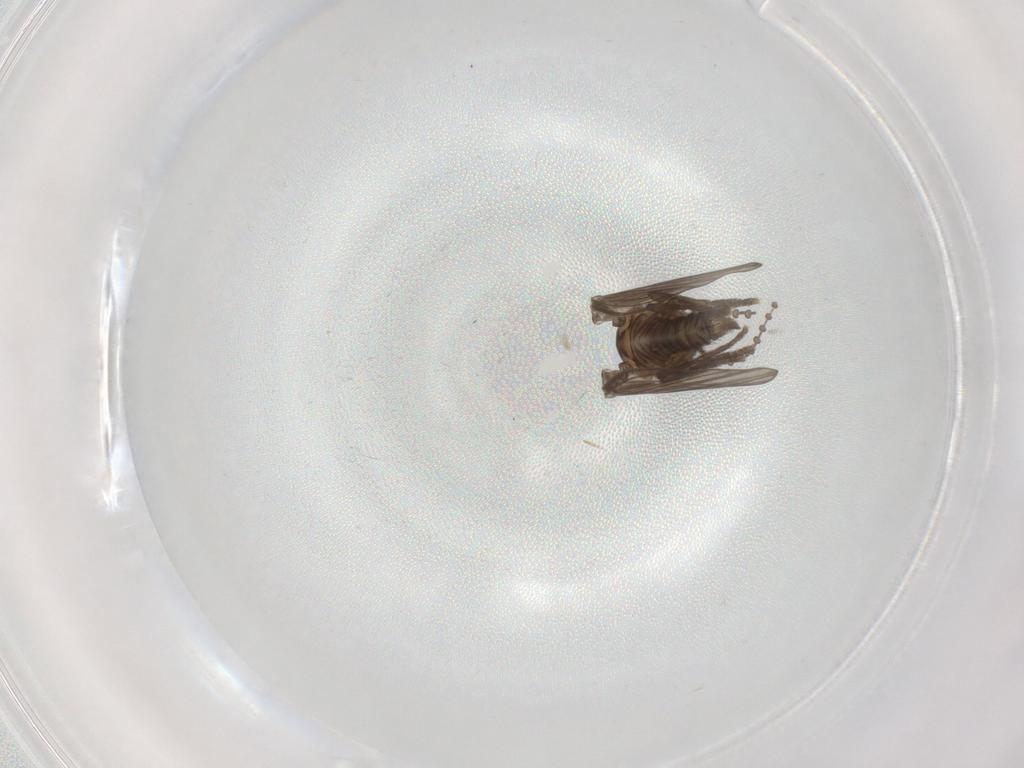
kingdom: Animalia
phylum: Arthropoda
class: Insecta
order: Diptera
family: Sciaridae
